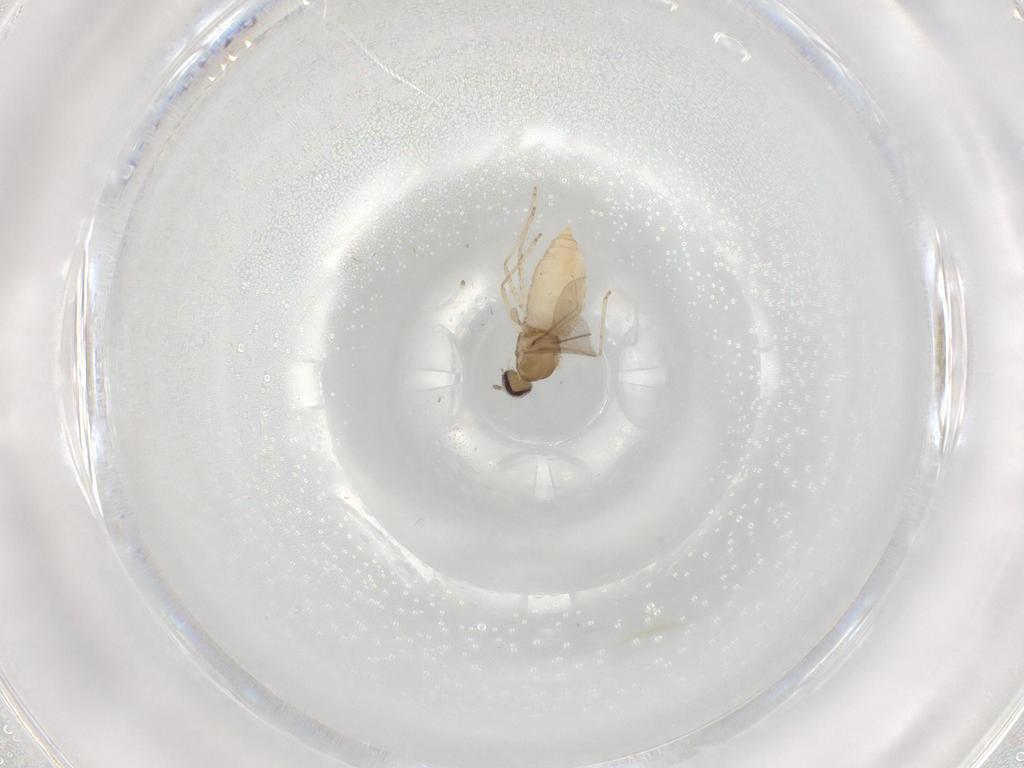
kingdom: Animalia
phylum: Arthropoda
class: Insecta
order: Diptera
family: Cecidomyiidae
